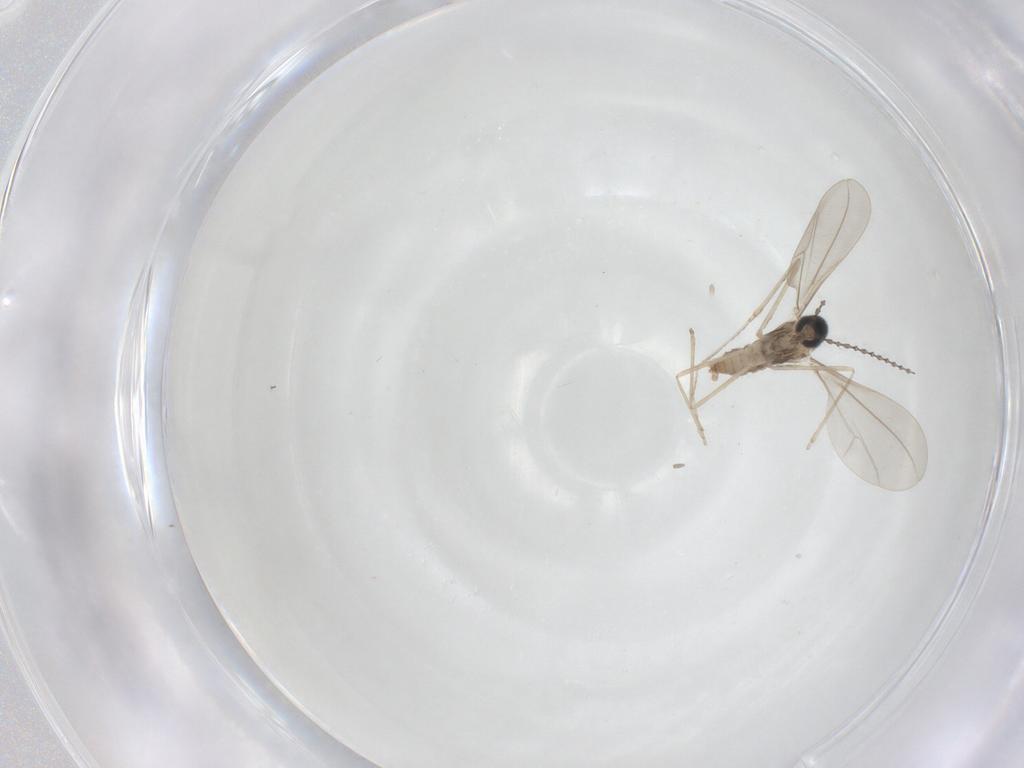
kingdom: Animalia
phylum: Arthropoda
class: Insecta
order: Diptera
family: Cecidomyiidae
